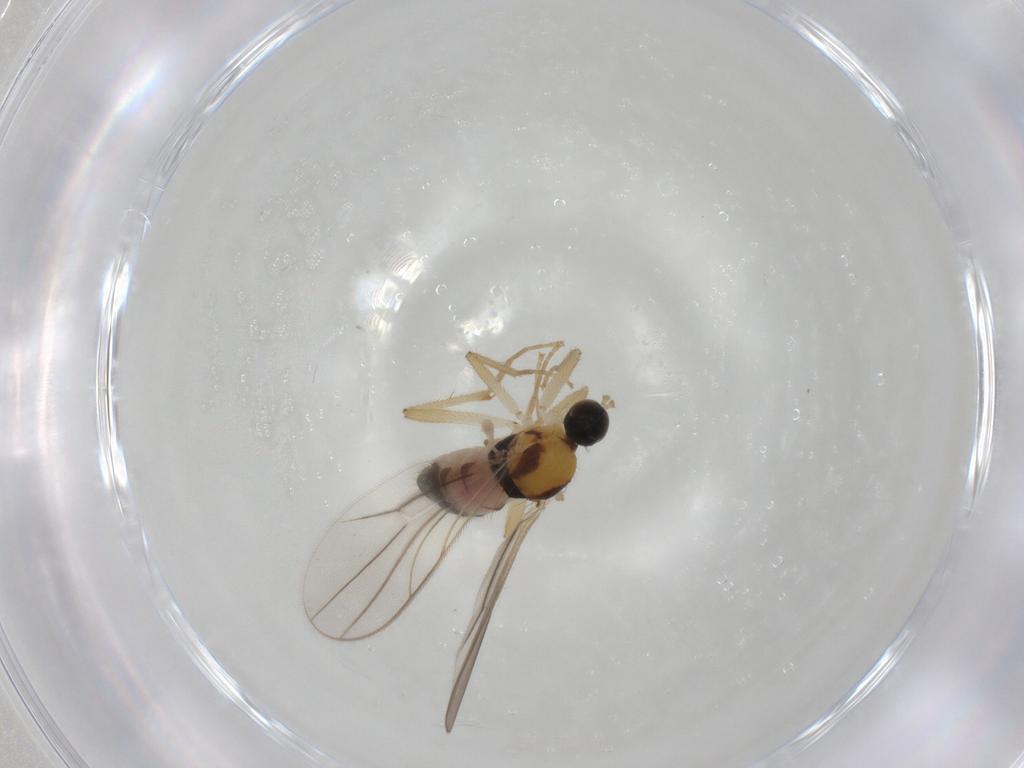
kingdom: Animalia
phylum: Arthropoda
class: Insecta
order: Diptera
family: Hybotidae
